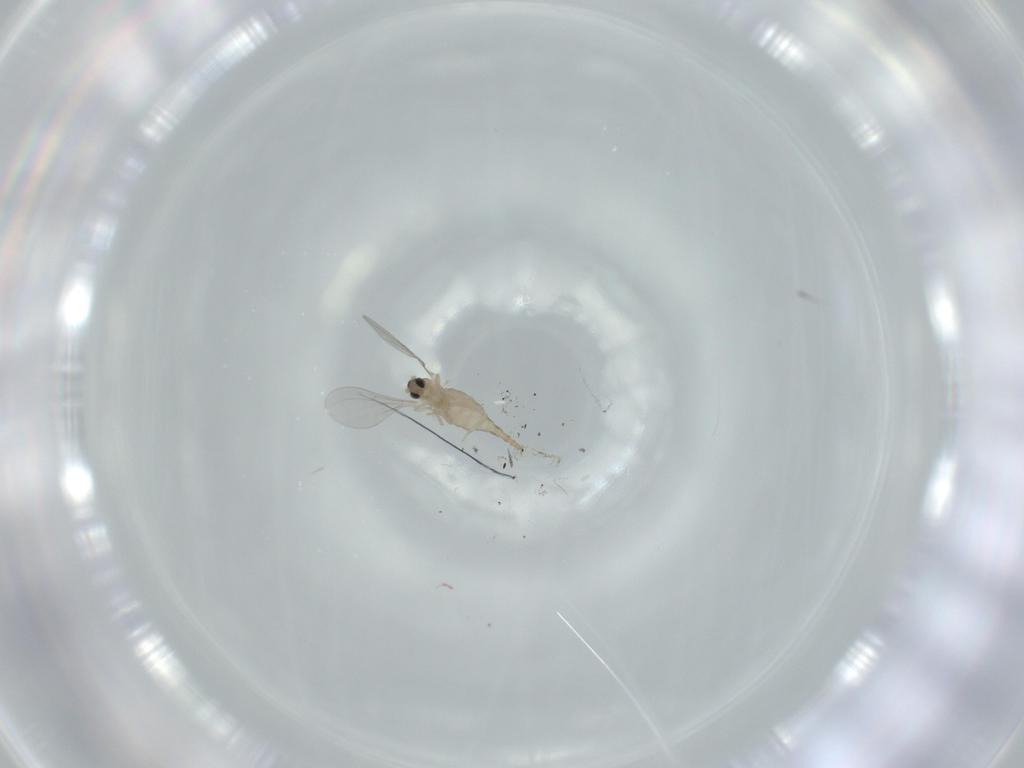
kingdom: Animalia
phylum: Arthropoda
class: Insecta
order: Diptera
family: Cecidomyiidae
